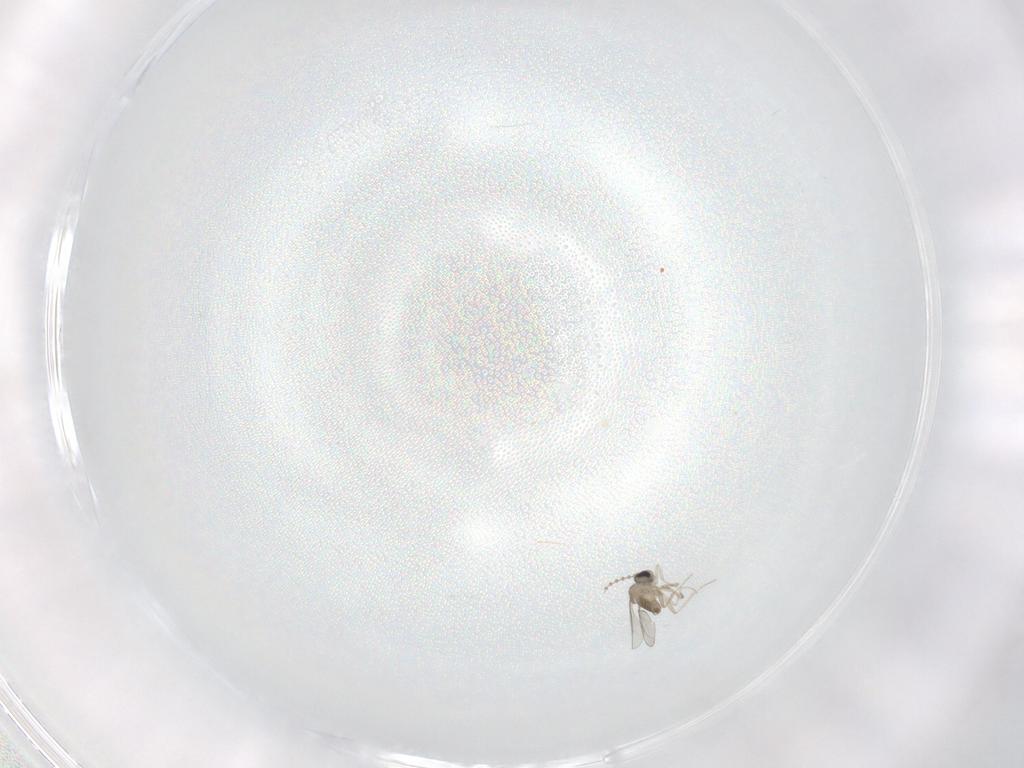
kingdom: Animalia
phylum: Arthropoda
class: Insecta
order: Diptera
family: Cecidomyiidae
